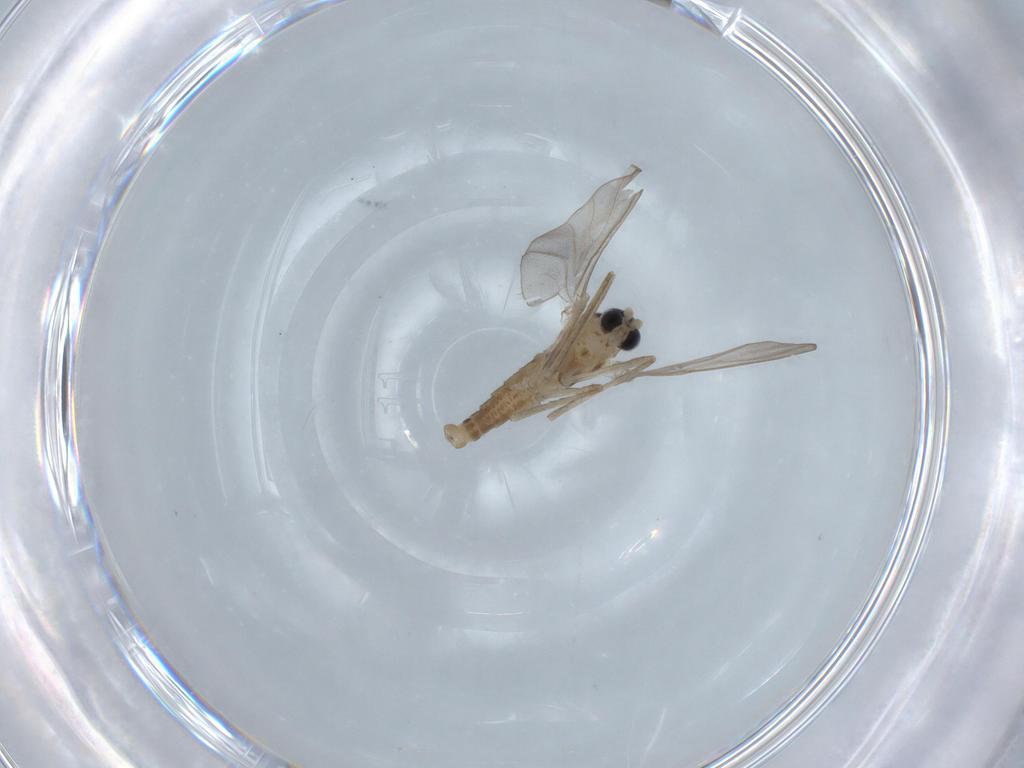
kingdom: Animalia
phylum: Arthropoda
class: Insecta
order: Diptera
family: Cecidomyiidae
